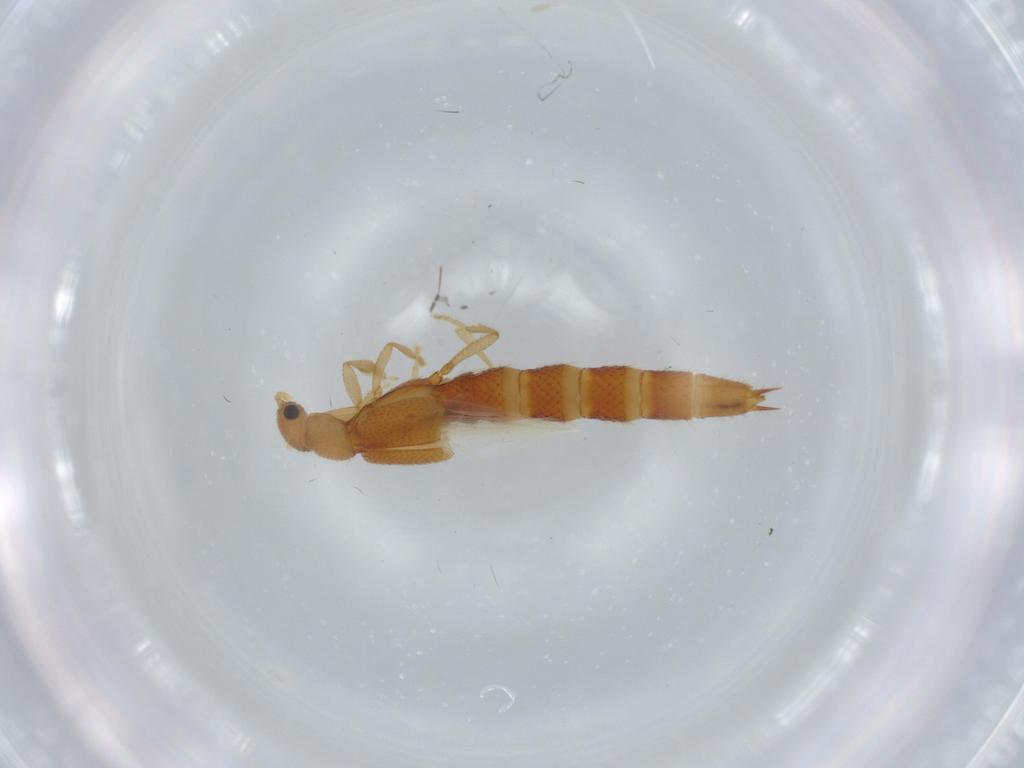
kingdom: Animalia
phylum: Arthropoda
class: Insecta
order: Coleoptera
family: Staphylinidae
